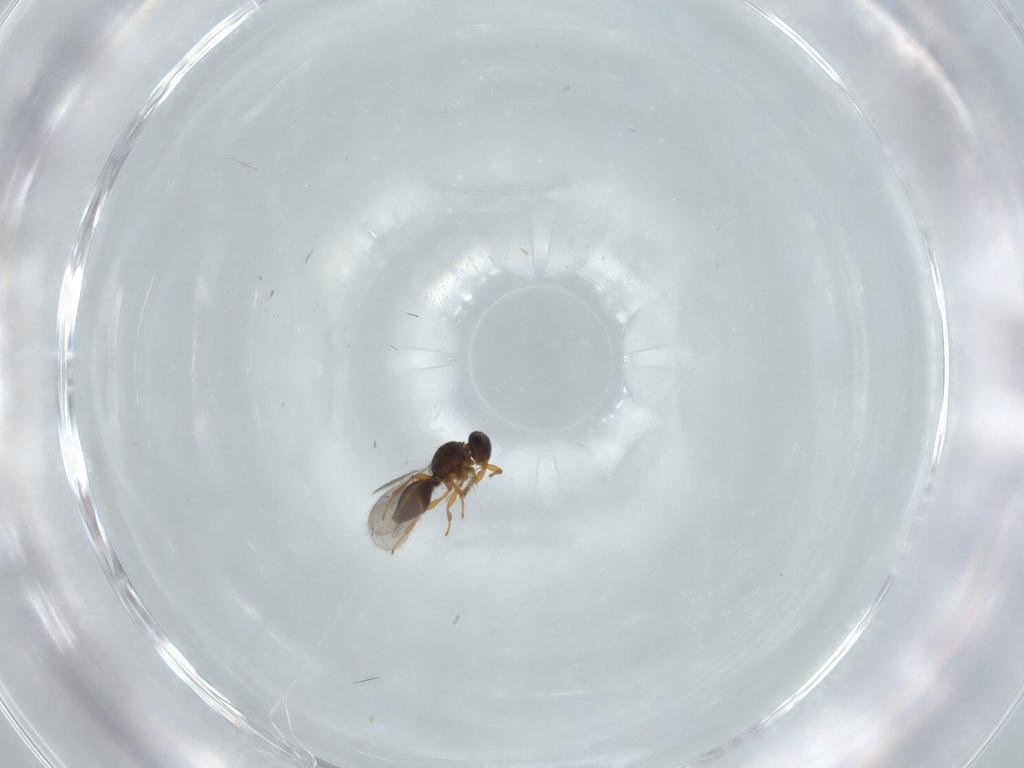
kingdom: Animalia
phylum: Arthropoda
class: Insecta
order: Hymenoptera
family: Platygastridae
